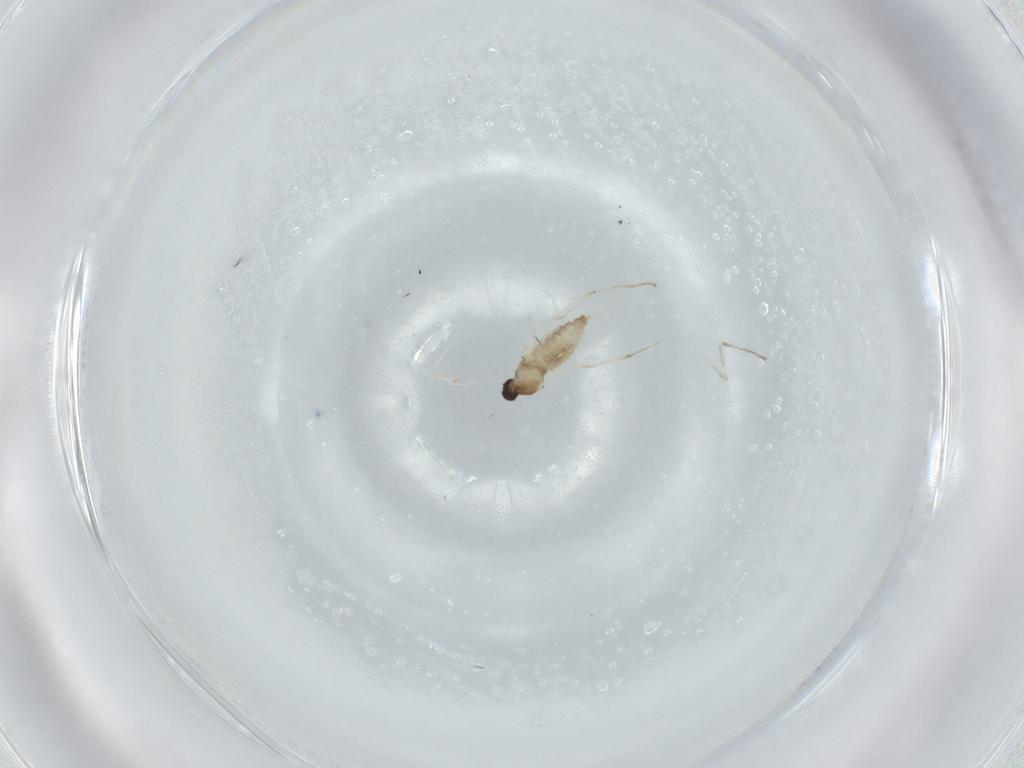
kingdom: Animalia
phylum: Arthropoda
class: Insecta
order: Diptera
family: Cecidomyiidae
